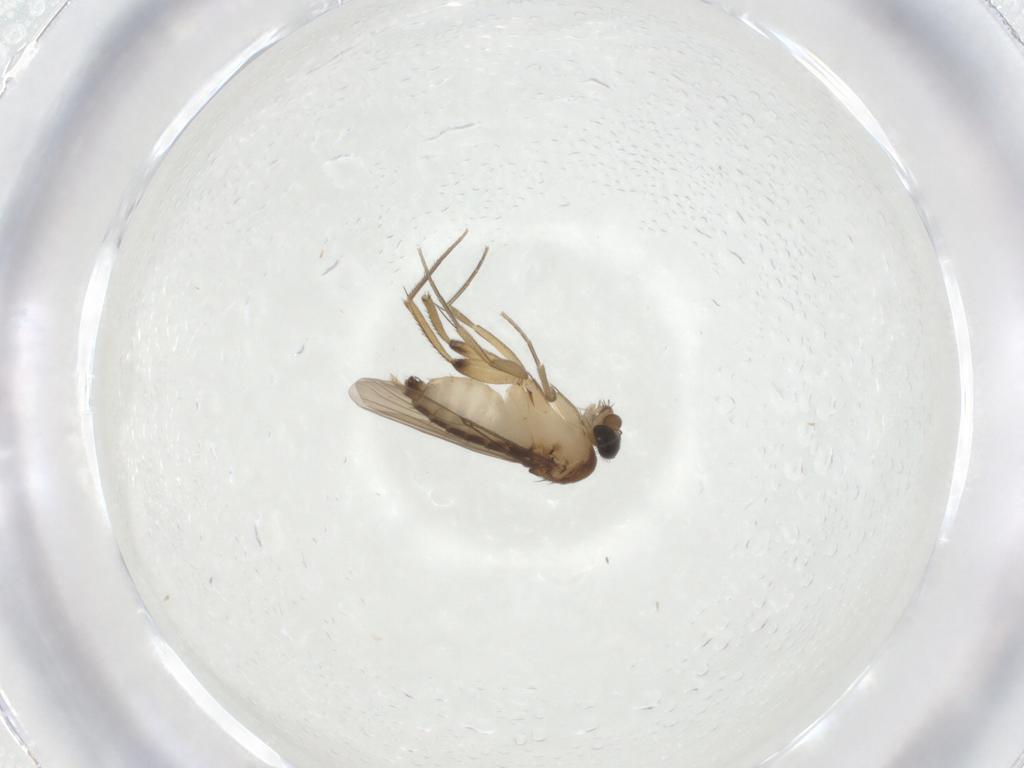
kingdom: Animalia
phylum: Arthropoda
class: Insecta
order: Diptera
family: Phoridae
